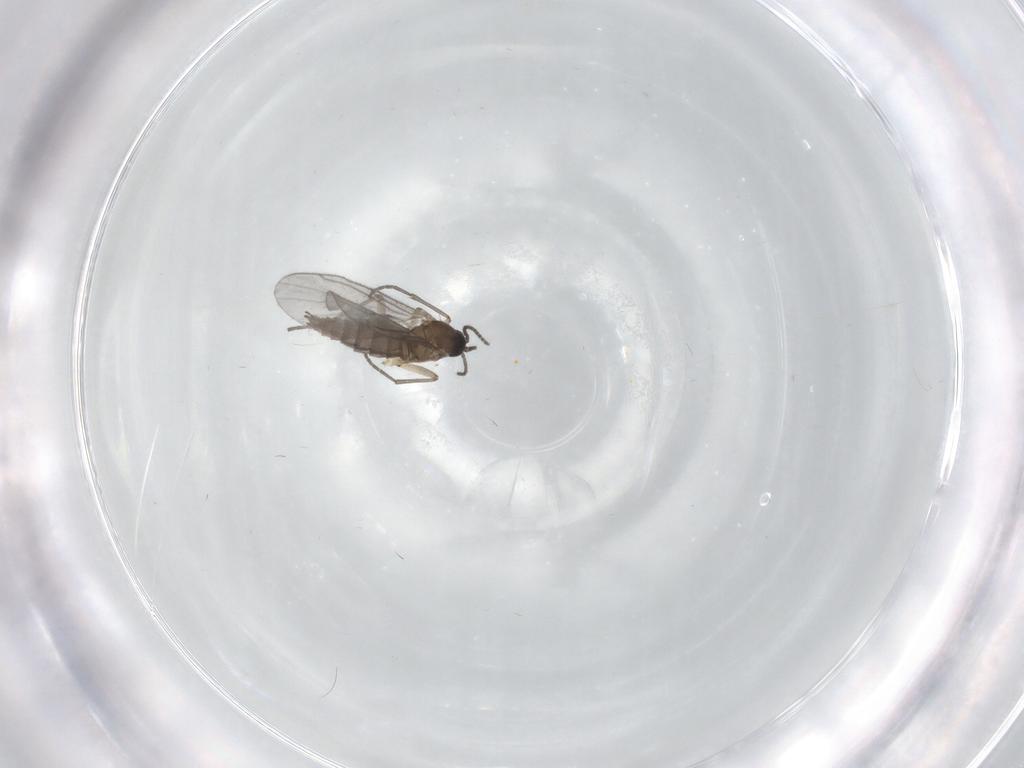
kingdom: Animalia
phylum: Arthropoda
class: Insecta
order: Diptera
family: Sciaridae
